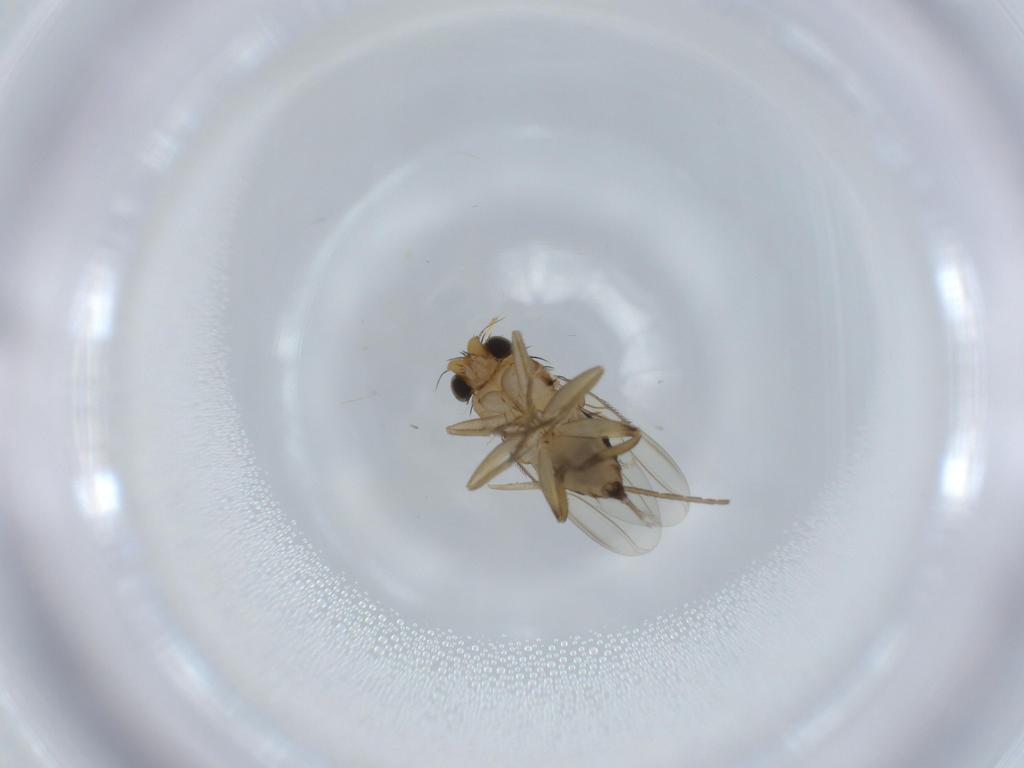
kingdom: Animalia
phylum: Arthropoda
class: Insecta
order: Diptera
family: Cecidomyiidae
